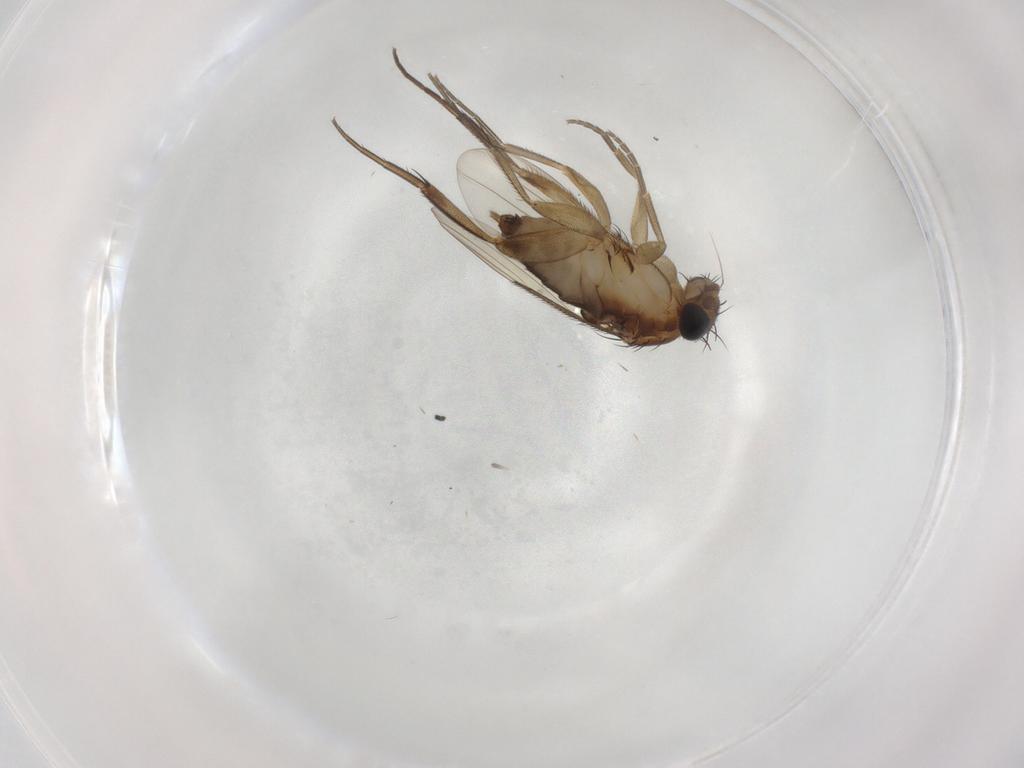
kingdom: Animalia
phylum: Arthropoda
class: Insecta
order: Diptera
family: Phoridae
